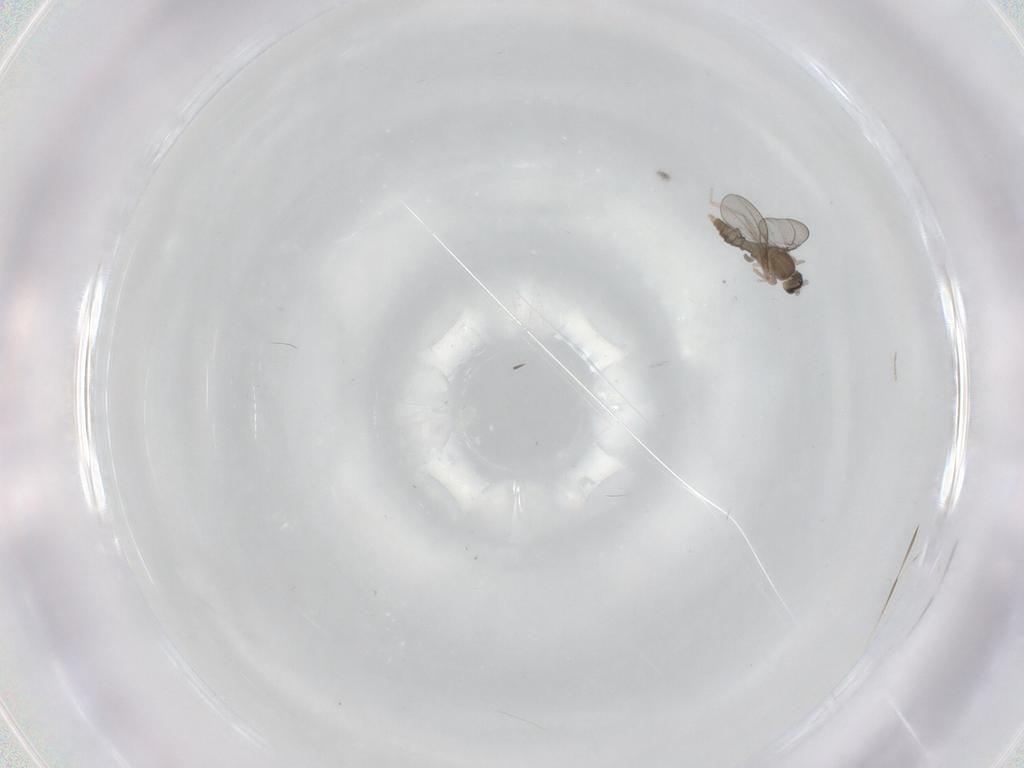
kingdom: Animalia
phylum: Arthropoda
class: Insecta
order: Diptera
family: Cecidomyiidae
